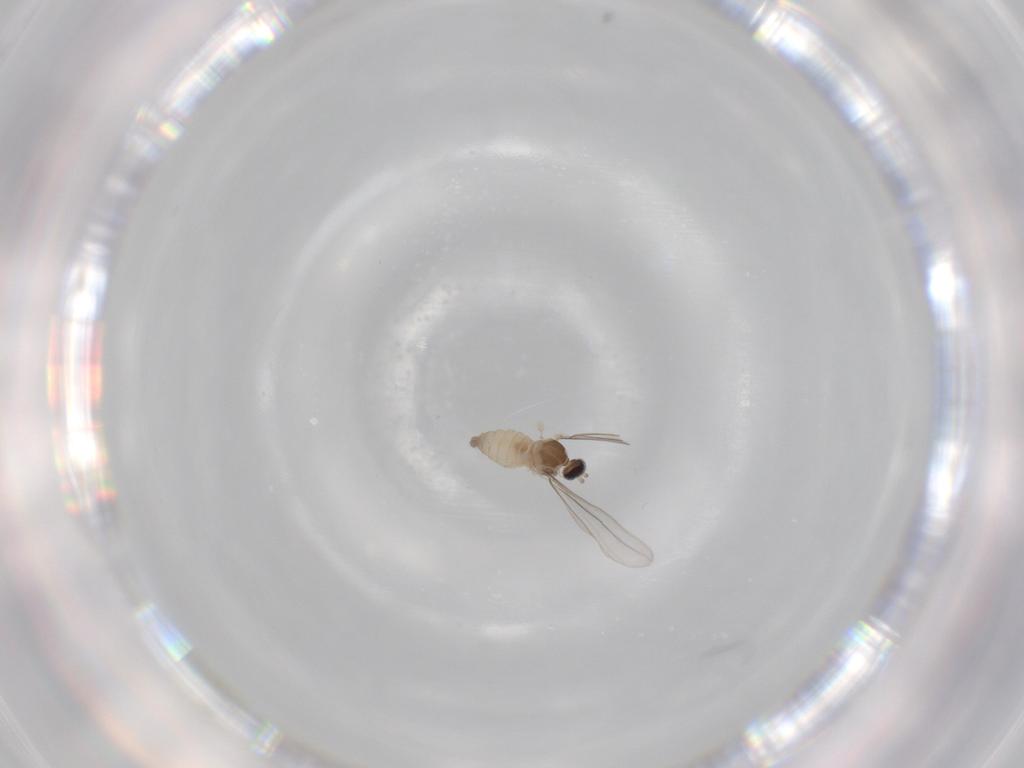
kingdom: Animalia
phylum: Arthropoda
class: Insecta
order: Diptera
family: Cecidomyiidae
